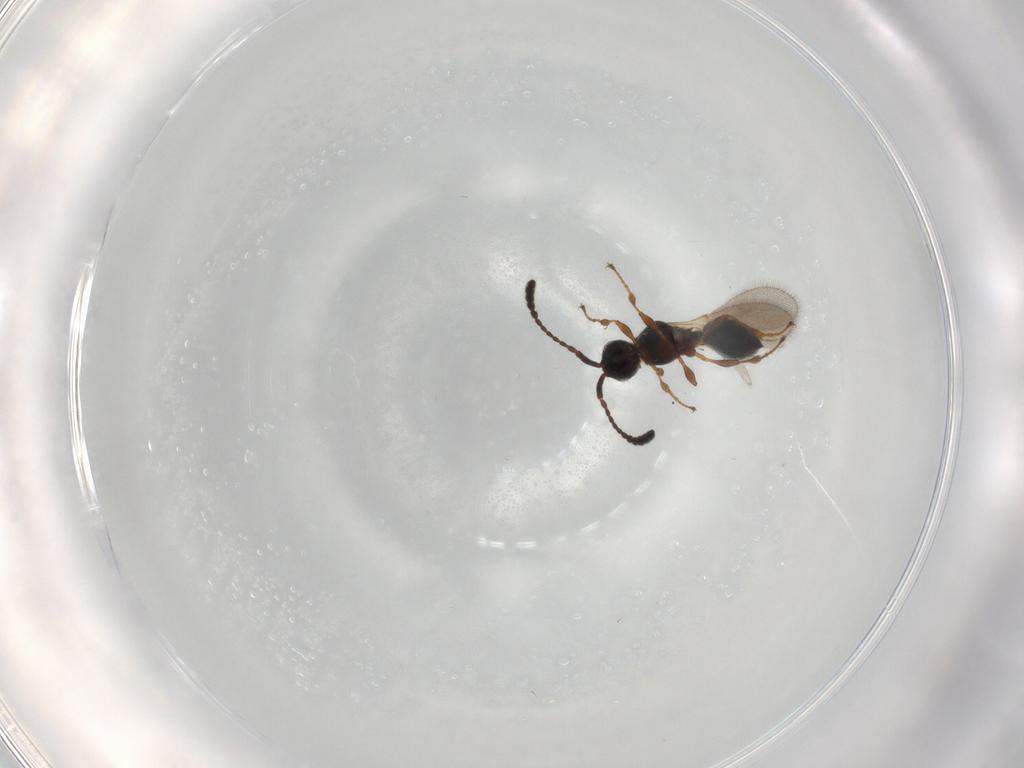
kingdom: Animalia
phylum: Arthropoda
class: Insecta
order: Hymenoptera
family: Diapriidae
